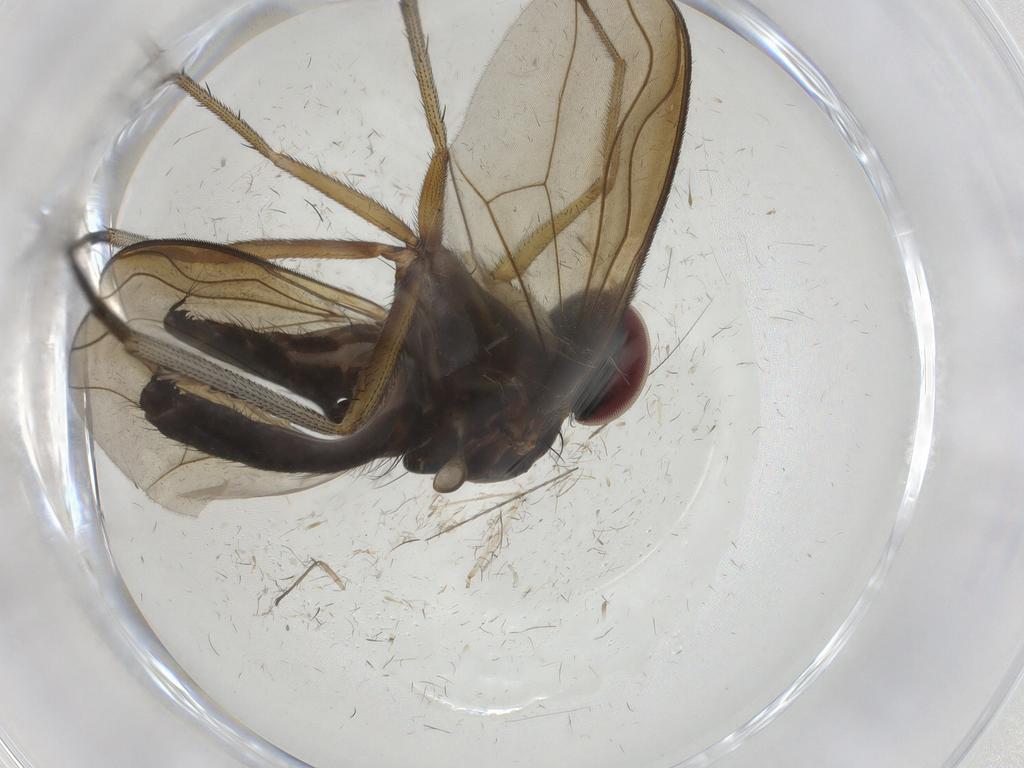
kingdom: Animalia
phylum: Arthropoda
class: Insecta
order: Diptera
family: Dolichopodidae
